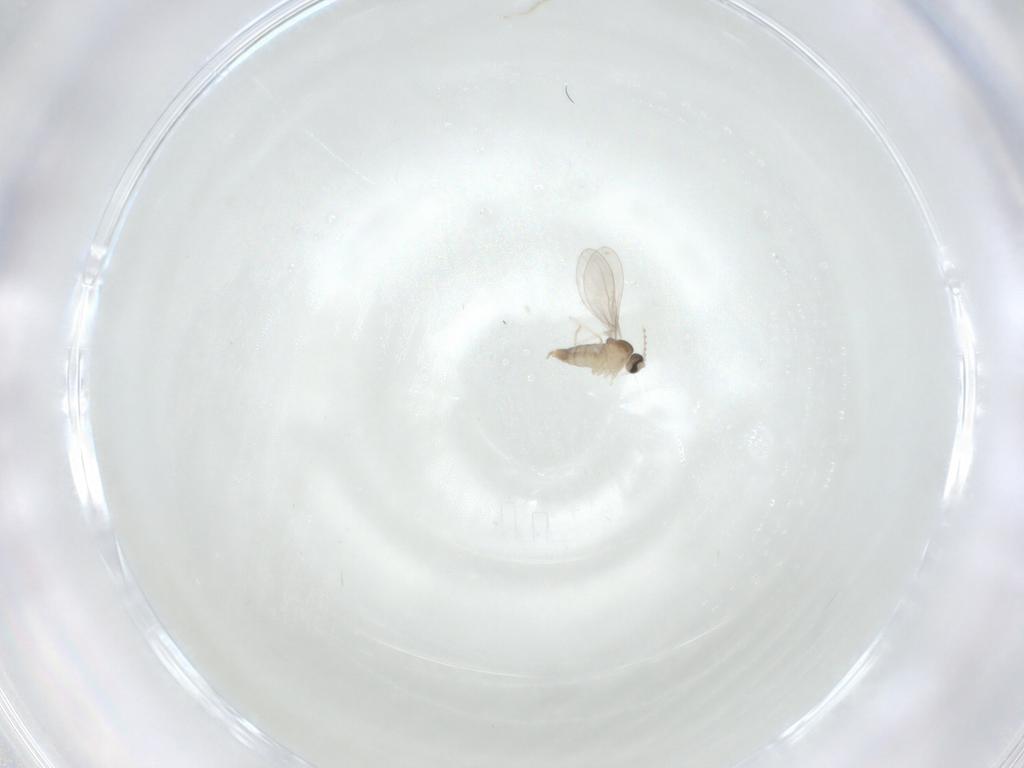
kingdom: Animalia
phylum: Arthropoda
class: Insecta
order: Diptera
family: Cecidomyiidae
